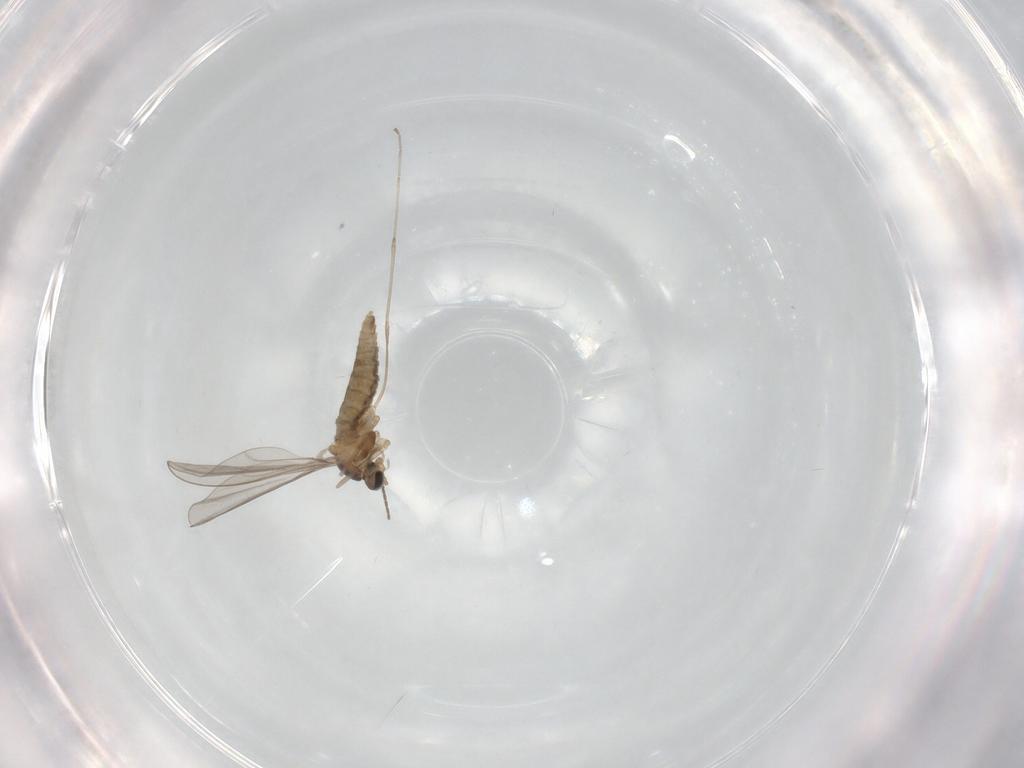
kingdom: Animalia
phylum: Arthropoda
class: Insecta
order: Diptera
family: Cecidomyiidae
